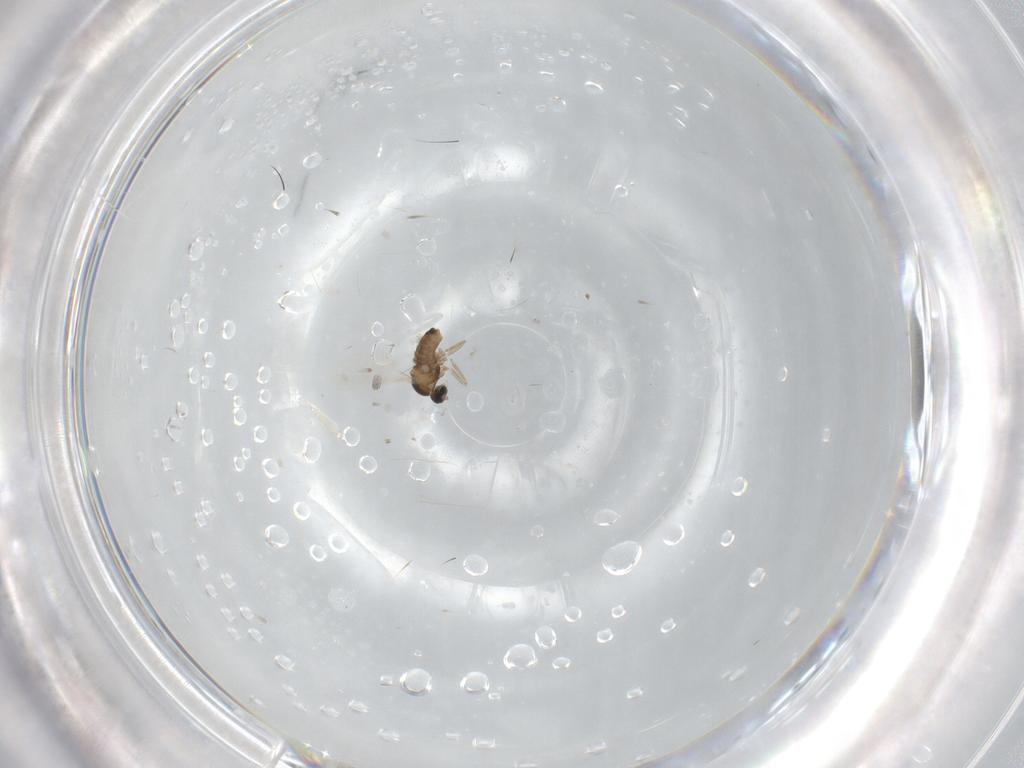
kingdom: Animalia
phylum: Arthropoda
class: Insecta
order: Diptera
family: Cecidomyiidae
